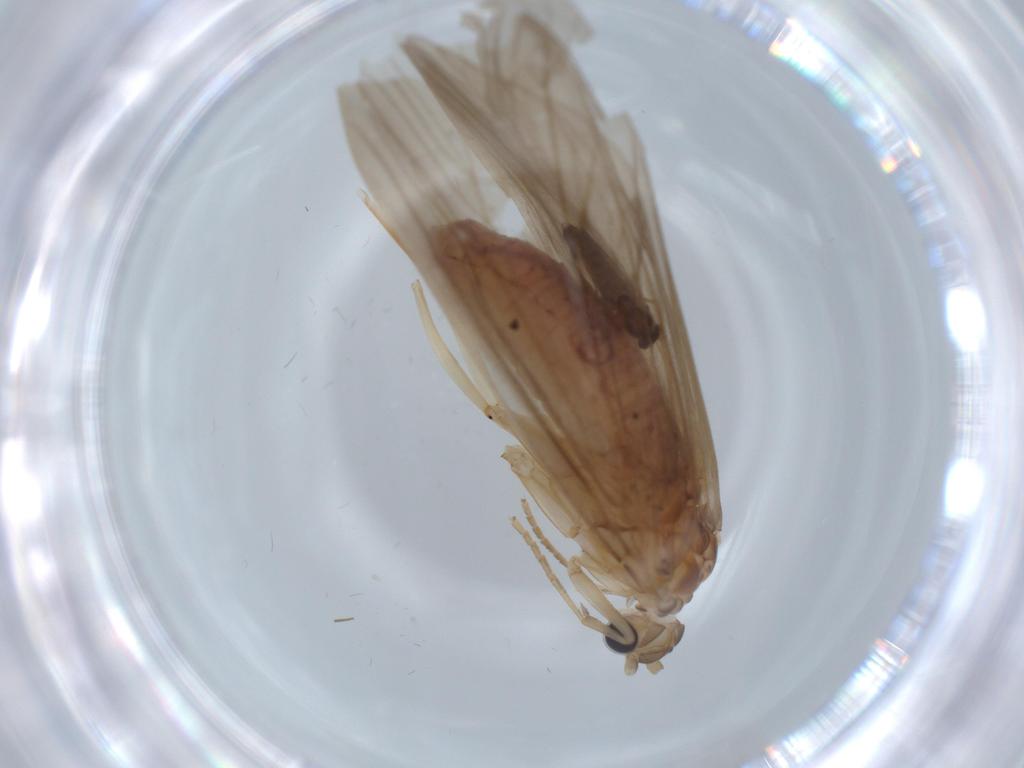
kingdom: Animalia
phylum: Arthropoda
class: Insecta
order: Trichoptera
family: Psychomyiidae
